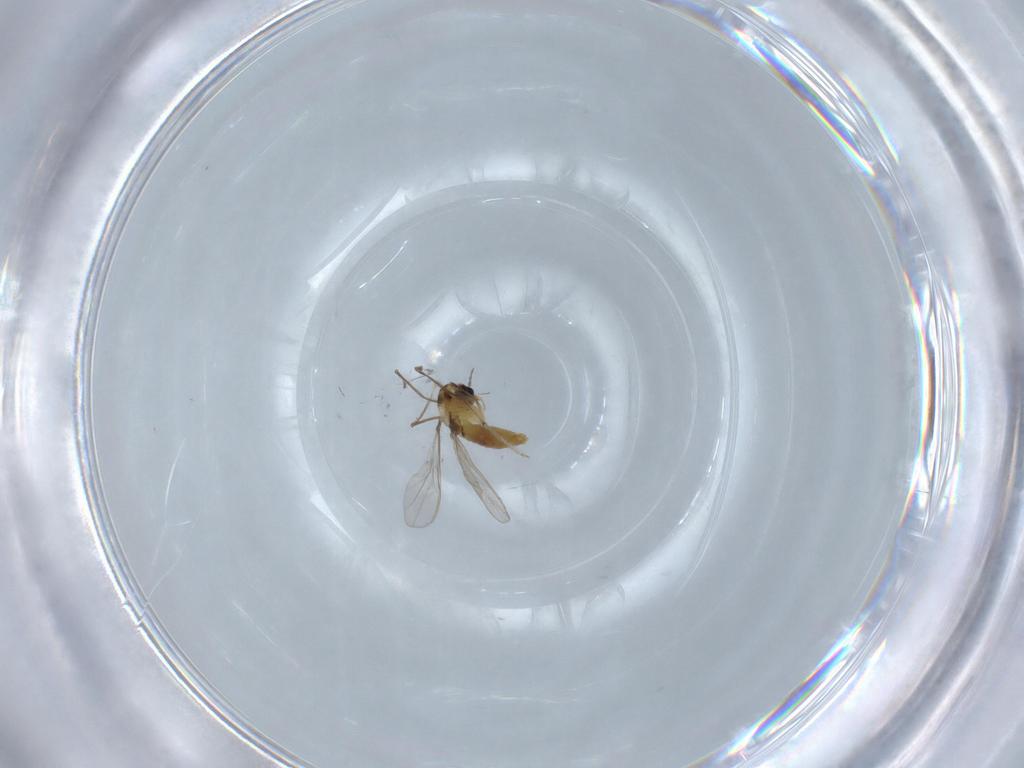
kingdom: Animalia
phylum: Arthropoda
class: Insecta
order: Diptera
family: Chironomidae
